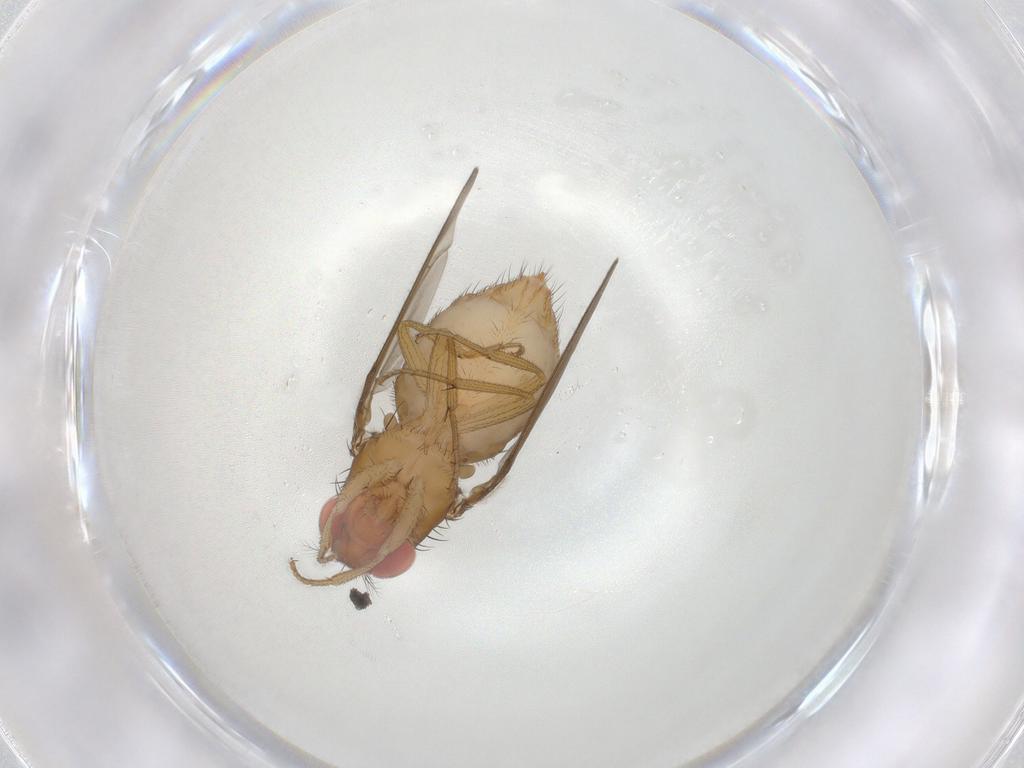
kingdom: Animalia
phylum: Arthropoda
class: Insecta
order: Diptera
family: Drosophilidae
